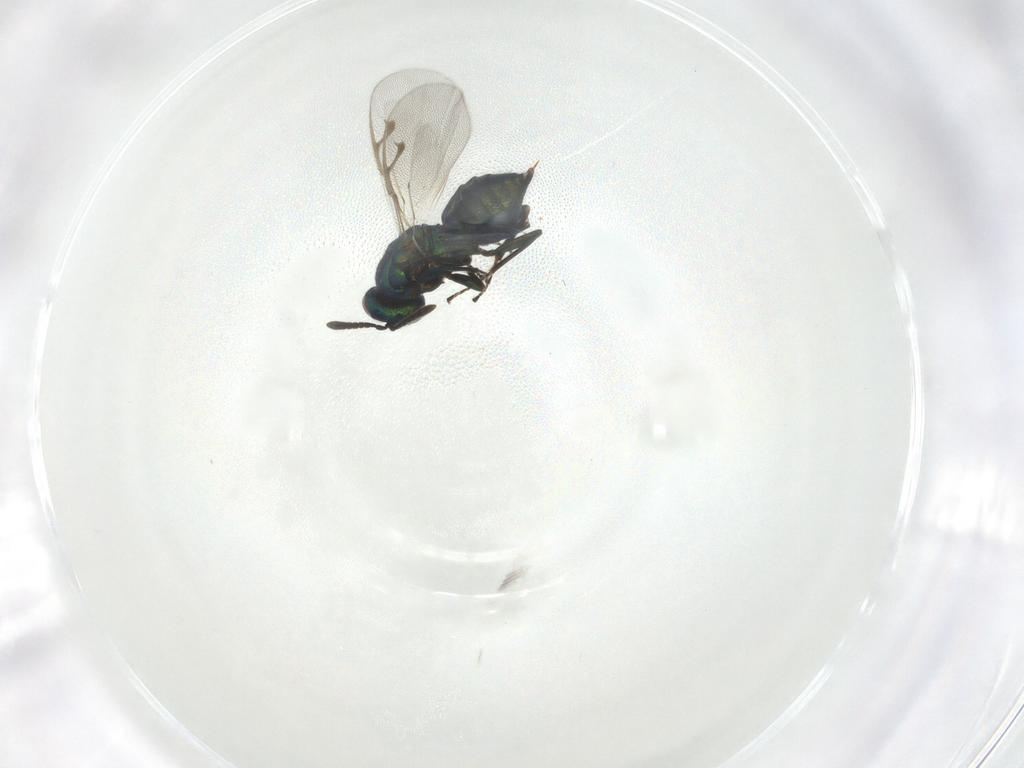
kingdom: Animalia
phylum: Arthropoda
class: Insecta
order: Hymenoptera
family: Pteromalidae
